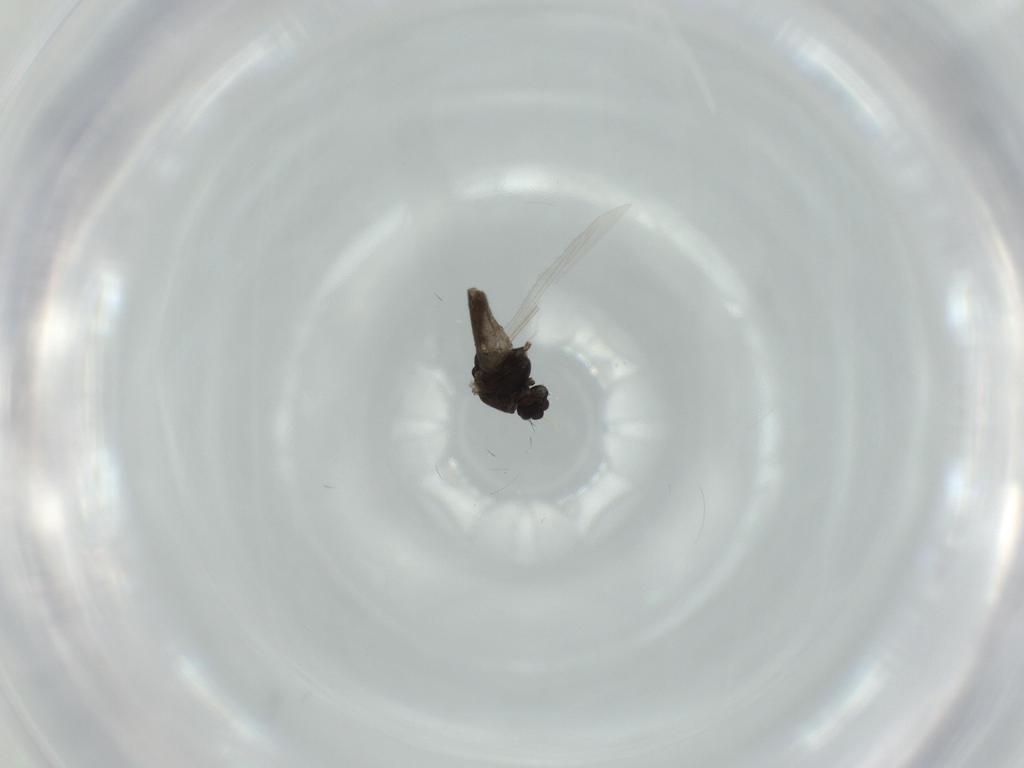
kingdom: Animalia
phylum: Arthropoda
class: Insecta
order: Diptera
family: Chironomidae
